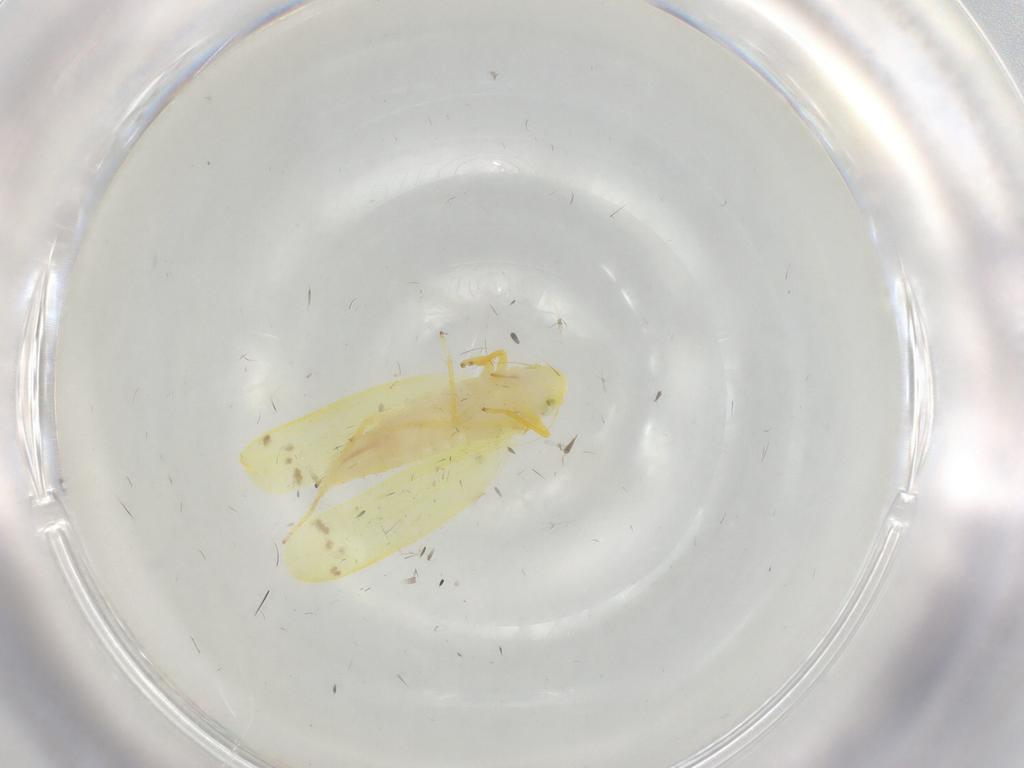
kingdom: Animalia
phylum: Arthropoda
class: Insecta
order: Hemiptera
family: Cicadellidae
